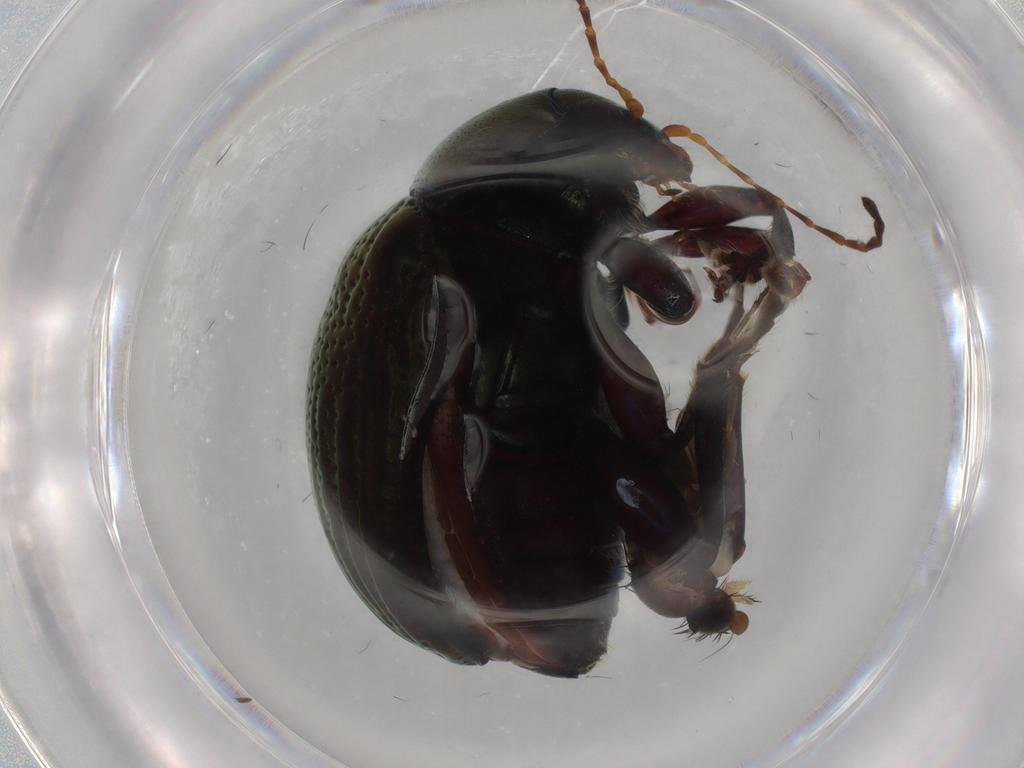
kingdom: Animalia
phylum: Arthropoda
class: Insecta
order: Coleoptera
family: Chrysomelidae
